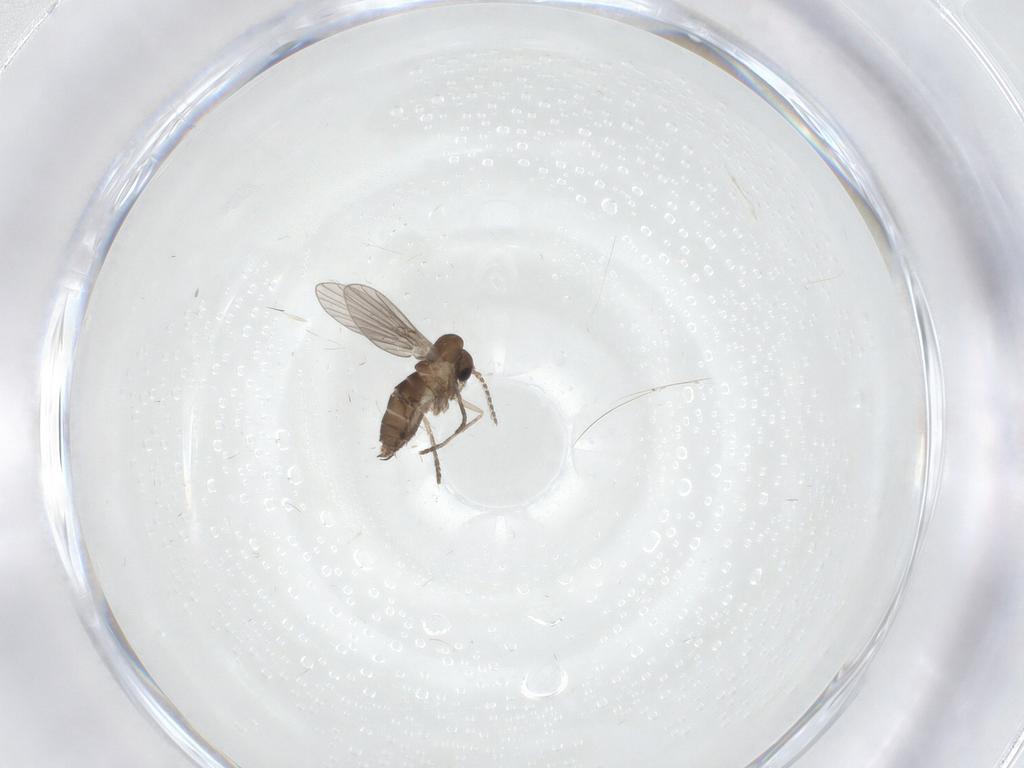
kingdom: Animalia
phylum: Arthropoda
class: Insecta
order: Diptera
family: Chironomidae
